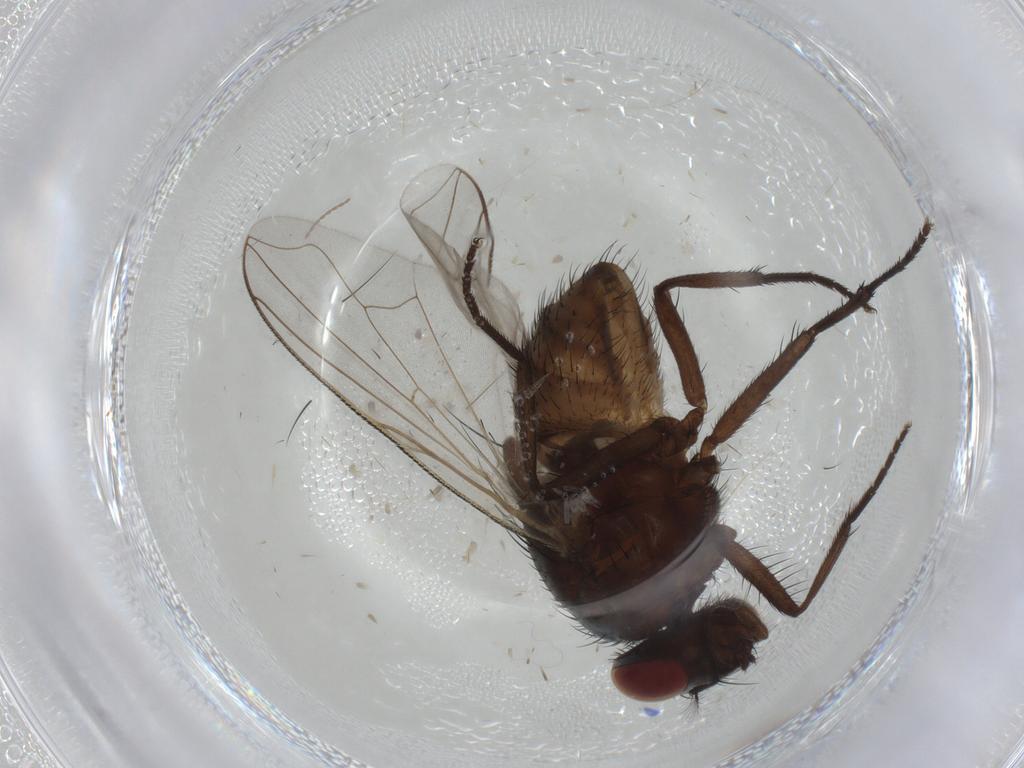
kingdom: Animalia
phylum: Arthropoda
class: Insecta
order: Diptera
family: Muscidae
